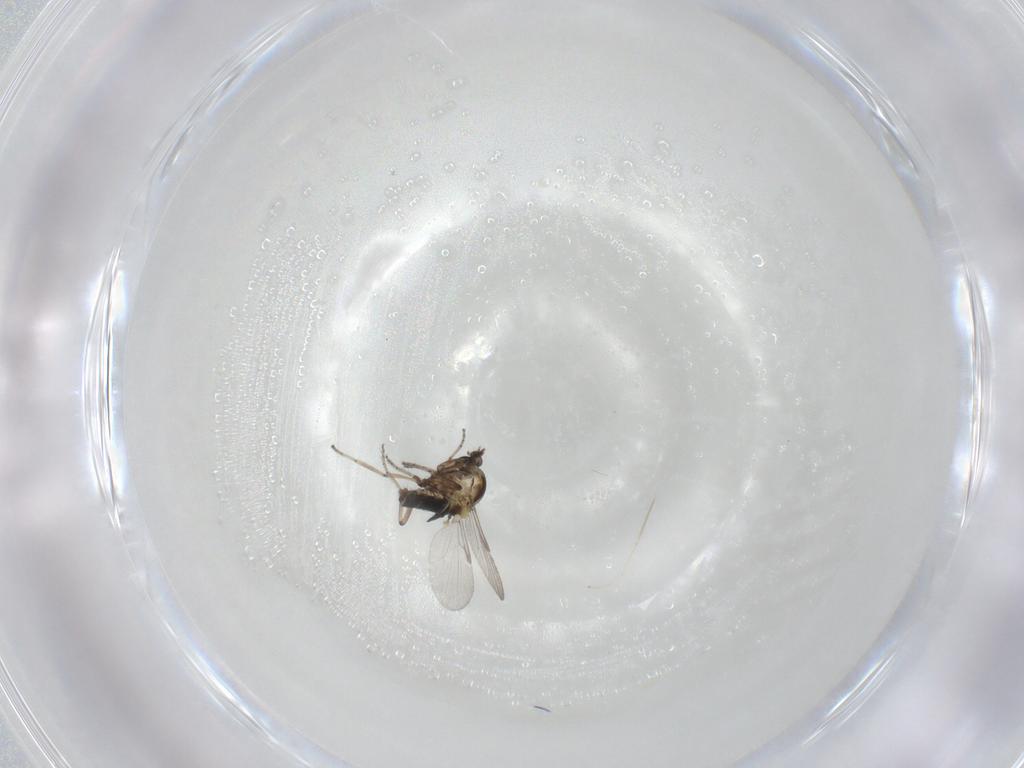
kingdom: Animalia
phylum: Arthropoda
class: Insecta
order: Diptera
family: Ceratopogonidae
